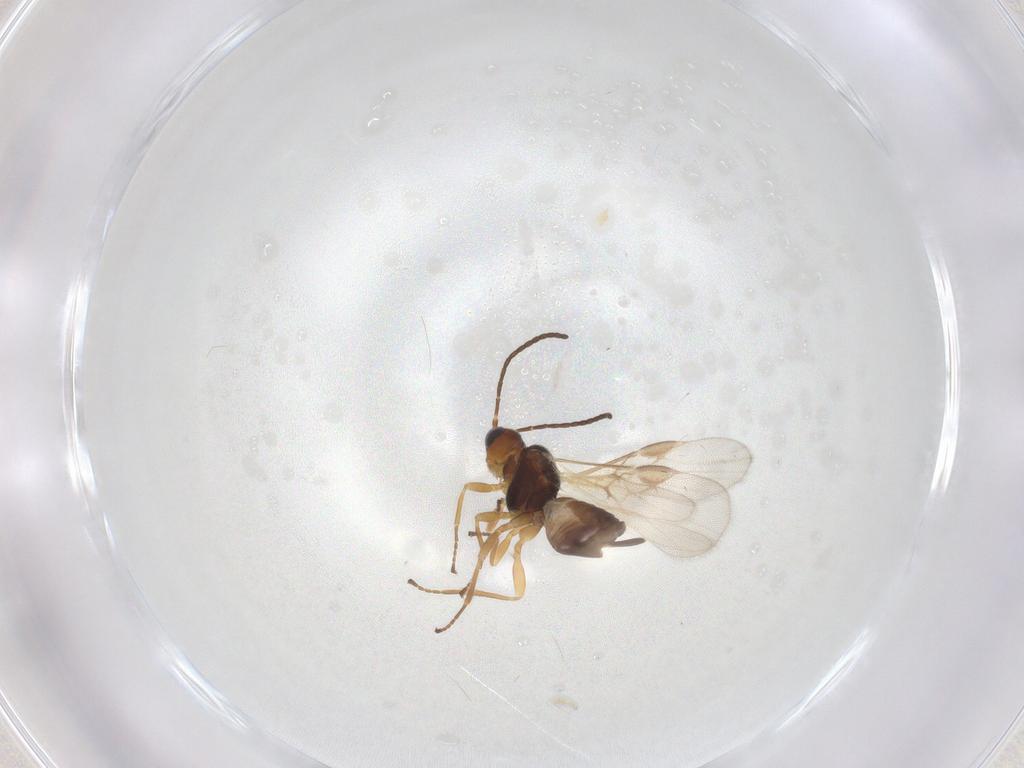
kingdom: Animalia
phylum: Arthropoda
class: Insecta
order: Hymenoptera
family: Braconidae
